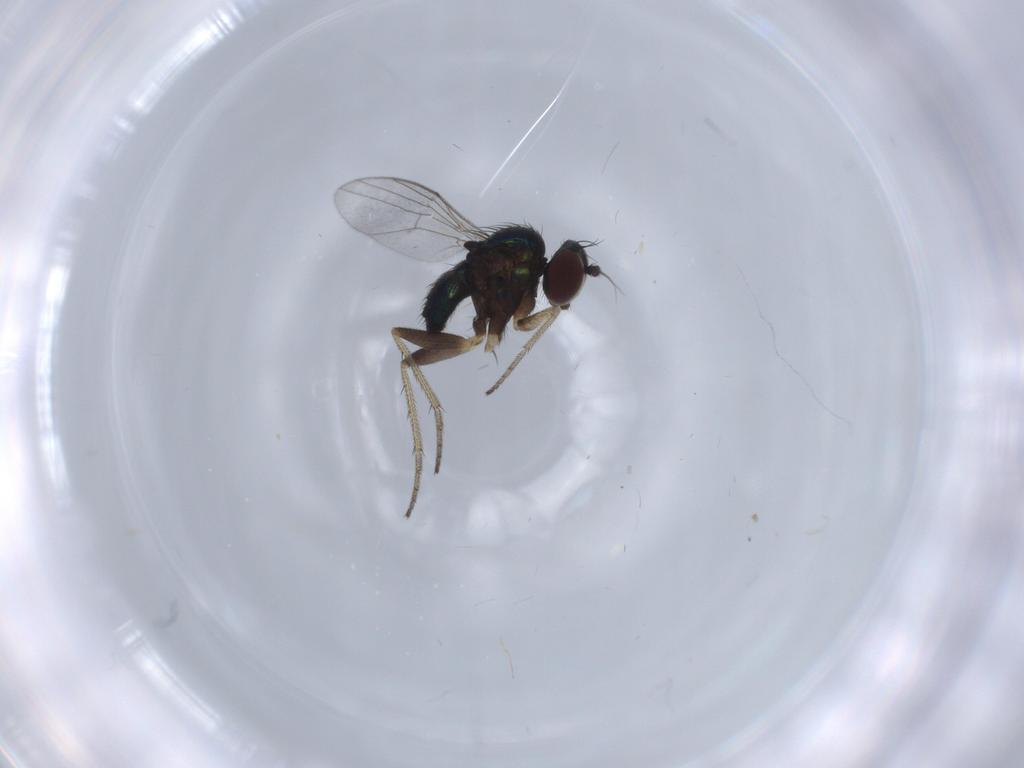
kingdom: Animalia
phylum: Arthropoda
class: Insecta
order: Diptera
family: Dolichopodidae
